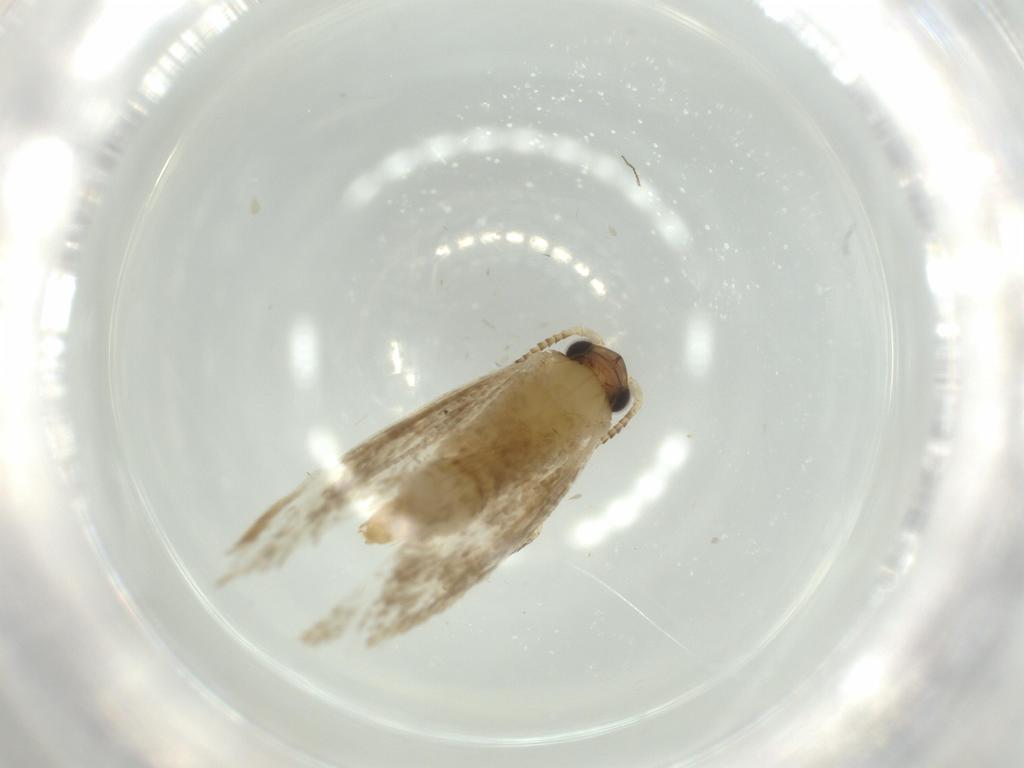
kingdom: Animalia
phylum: Arthropoda
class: Insecta
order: Lepidoptera
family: Tineidae
